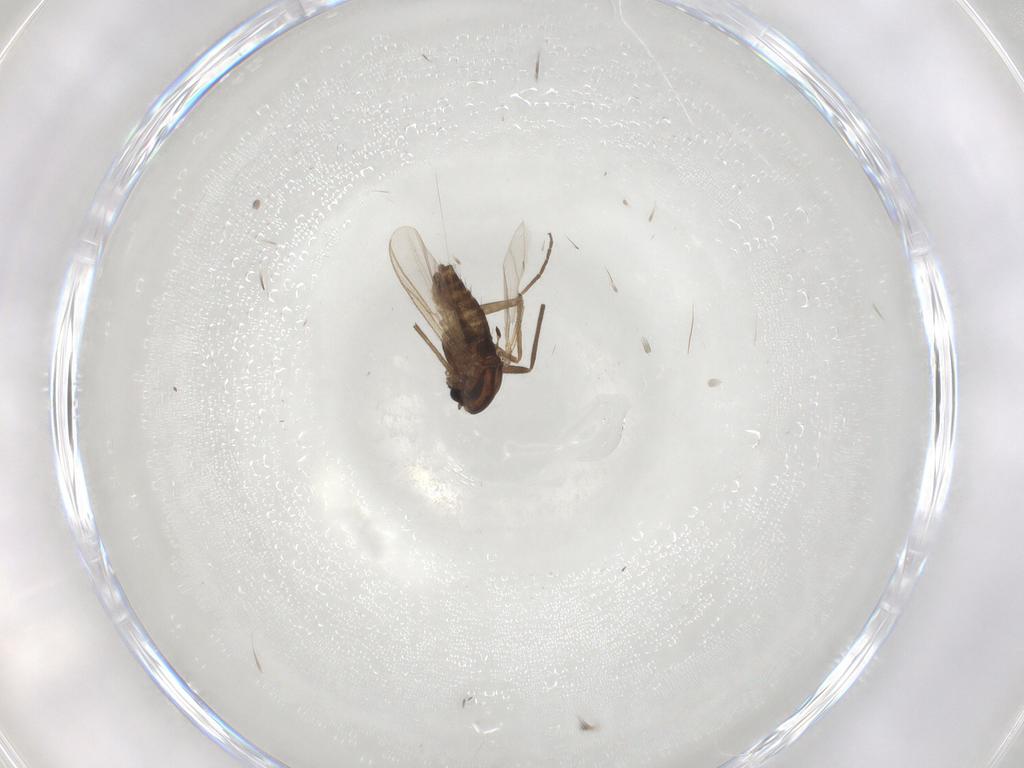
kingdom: Animalia
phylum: Arthropoda
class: Insecta
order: Diptera
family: Chironomidae
